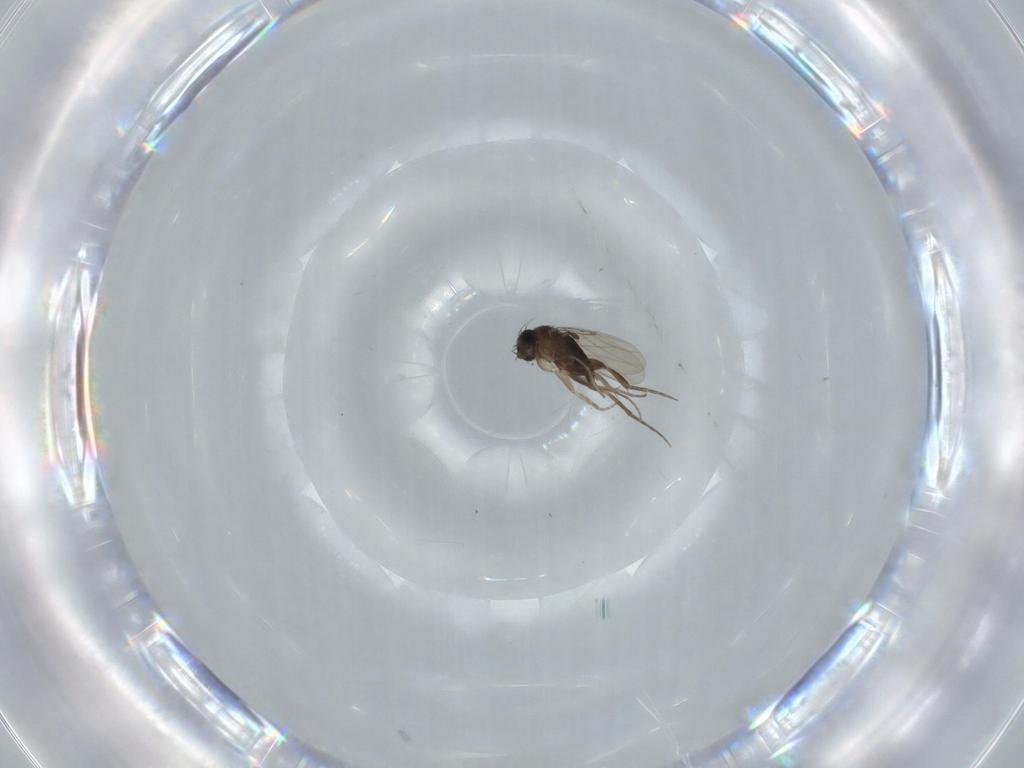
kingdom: Animalia
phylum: Arthropoda
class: Insecta
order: Diptera
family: Phoridae
